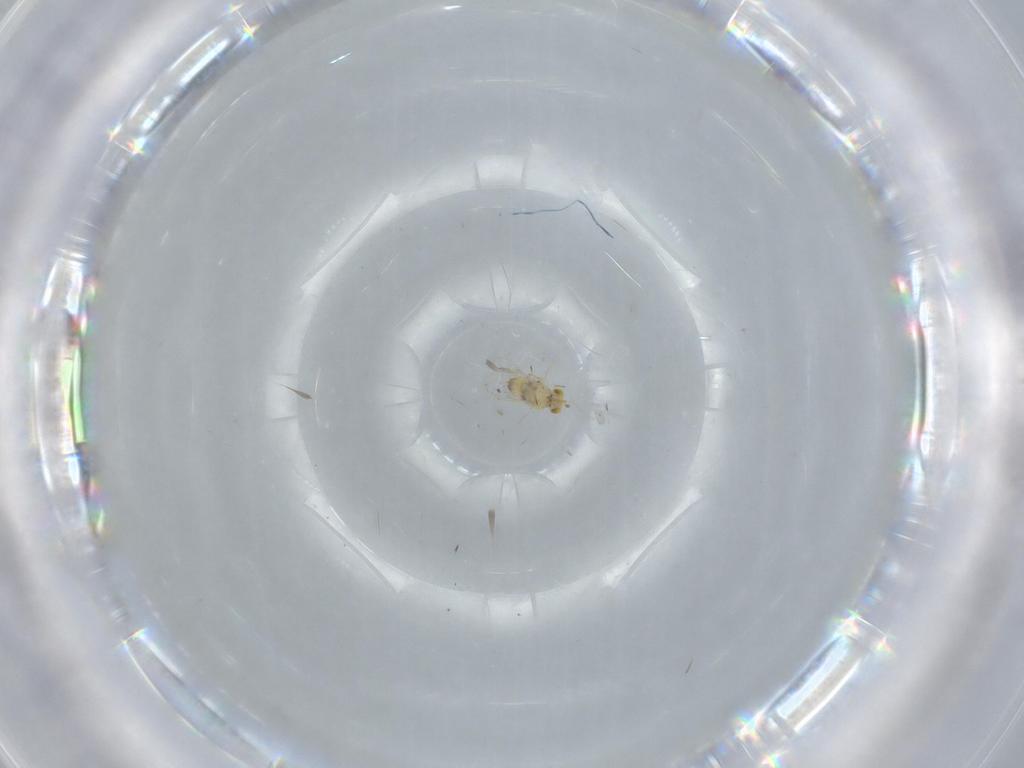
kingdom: Animalia
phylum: Arthropoda
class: Insecta
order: Hymenoptera
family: Aphelinidae
